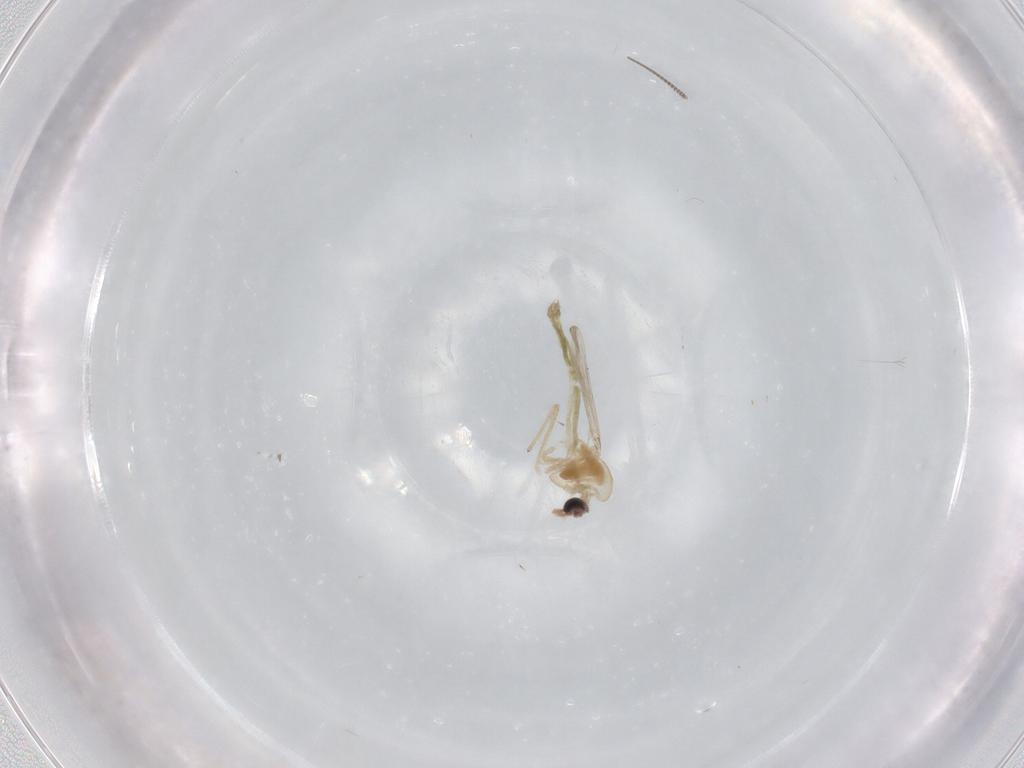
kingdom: Animalia
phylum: Arthropoda
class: Insecta
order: Diptera
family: Chironomidae
